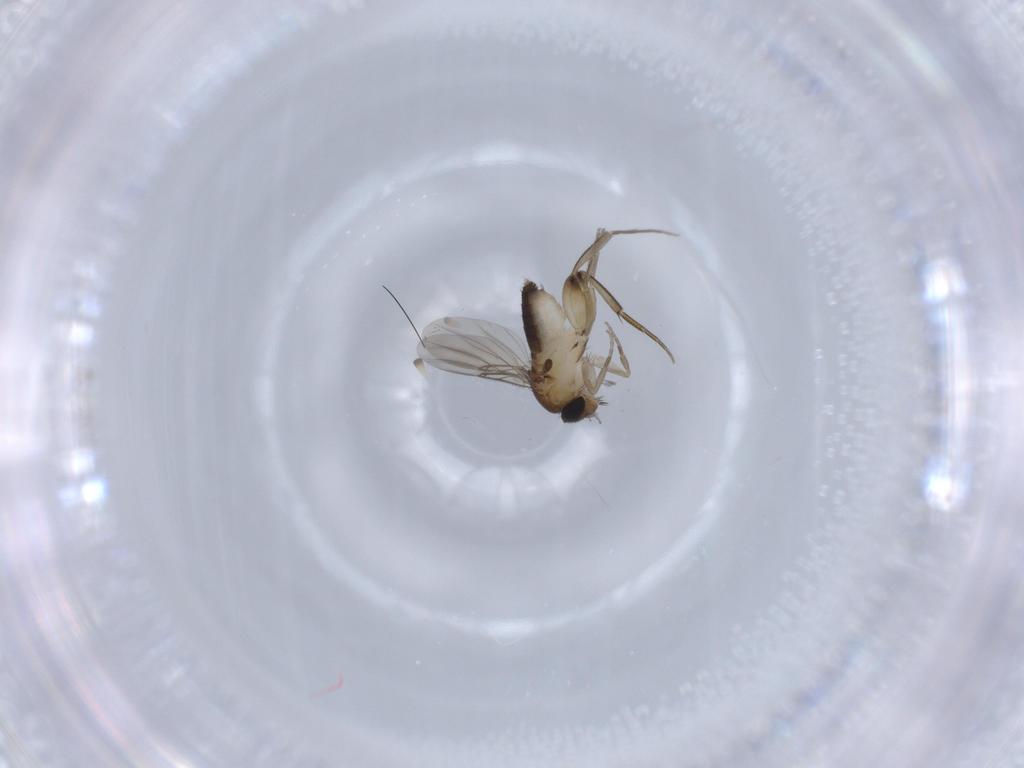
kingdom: Animalia
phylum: Arthropoda
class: Insecta
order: Diptera
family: Phoridae
